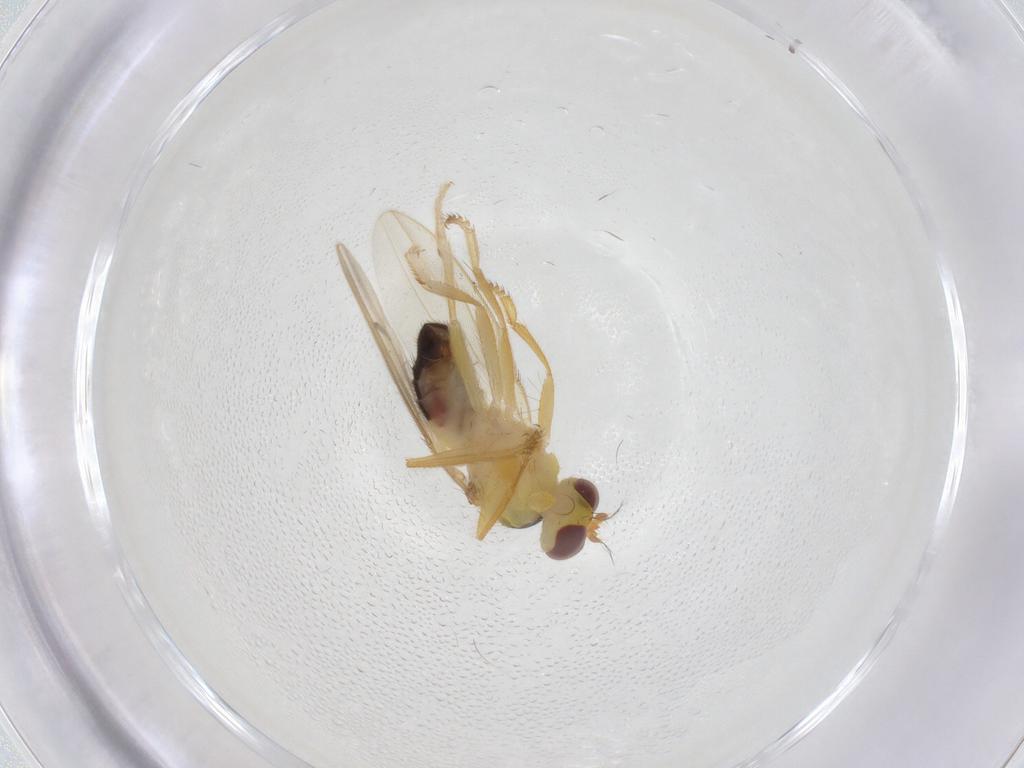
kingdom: Animalia
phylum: Arthropoda
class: Insecta
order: Diptera
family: Periscelididae
